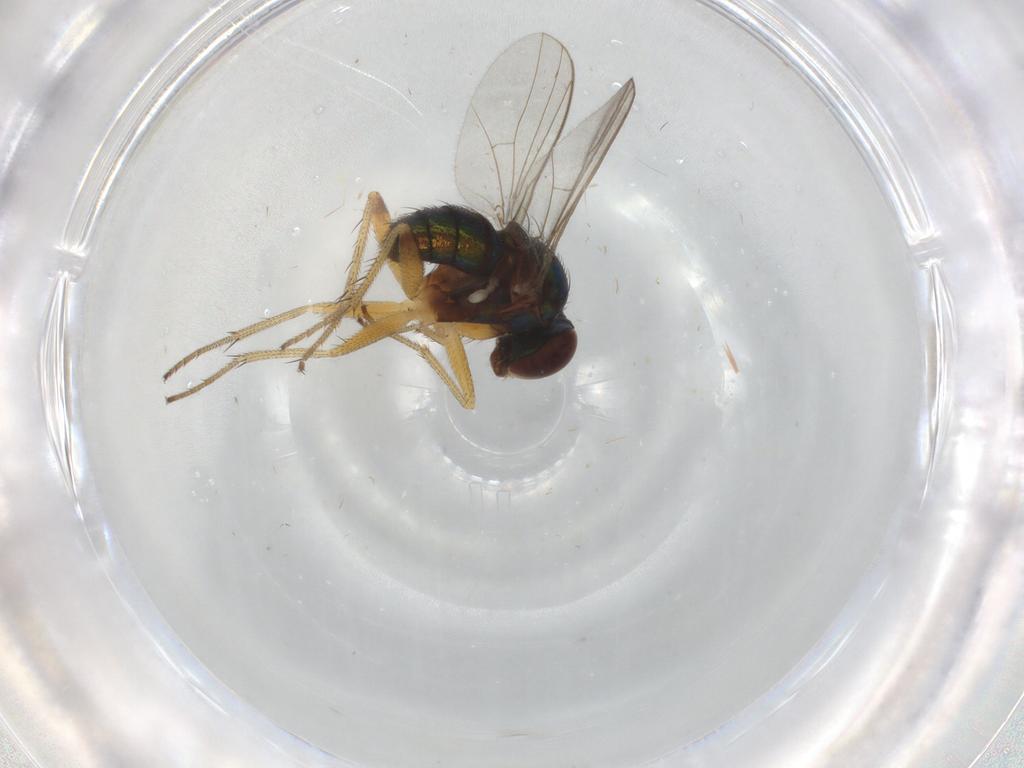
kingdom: Animalia
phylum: Arthropoda
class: Insecta
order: Diptera
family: Cecidomyiidae
